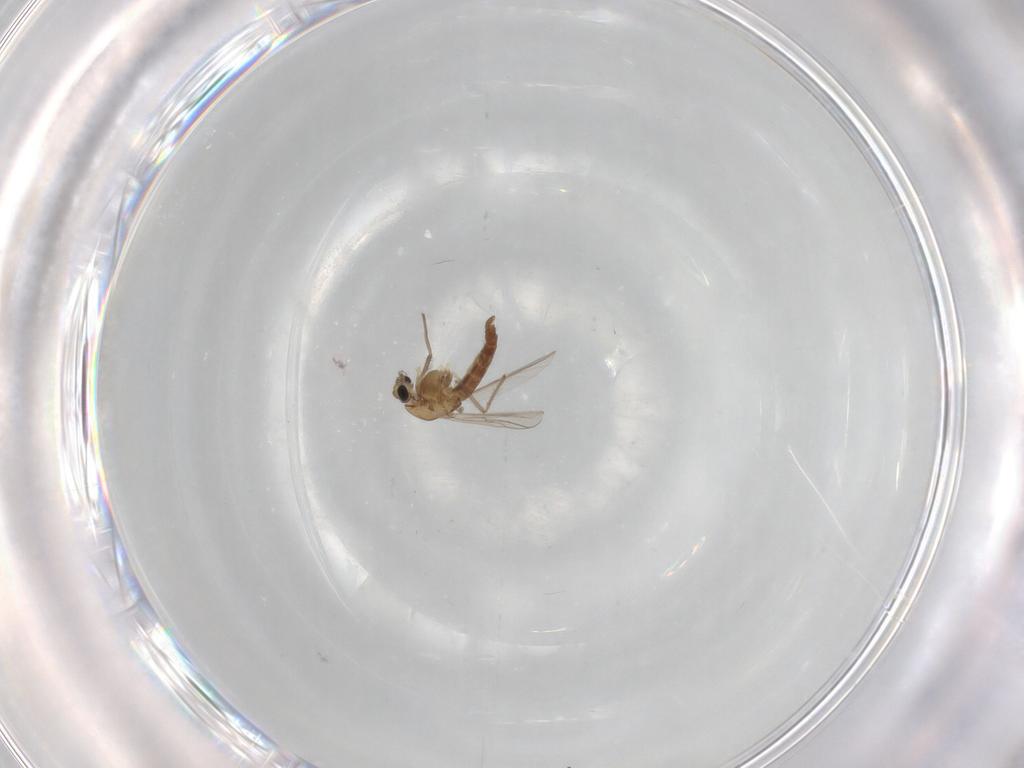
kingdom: Animalia
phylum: Arthropoda
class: Insecta
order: Diptera
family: Chironomidae
